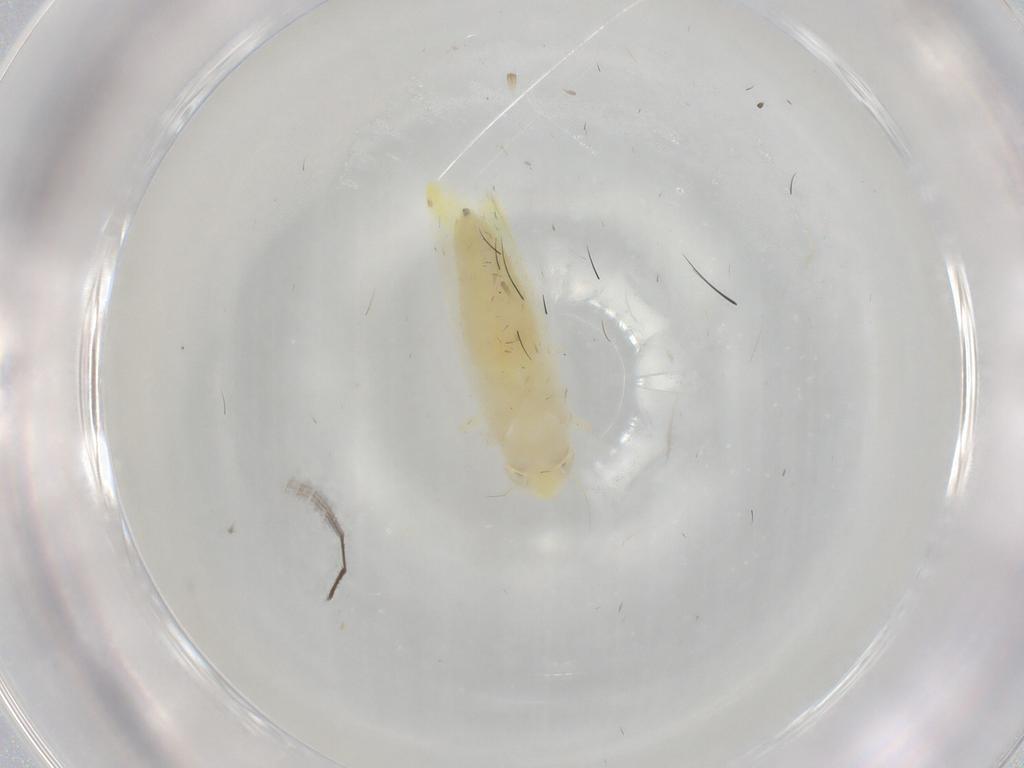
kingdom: Animalia
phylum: Arthropoda
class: Insecta
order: Hemiptera
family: Cicadellidae
